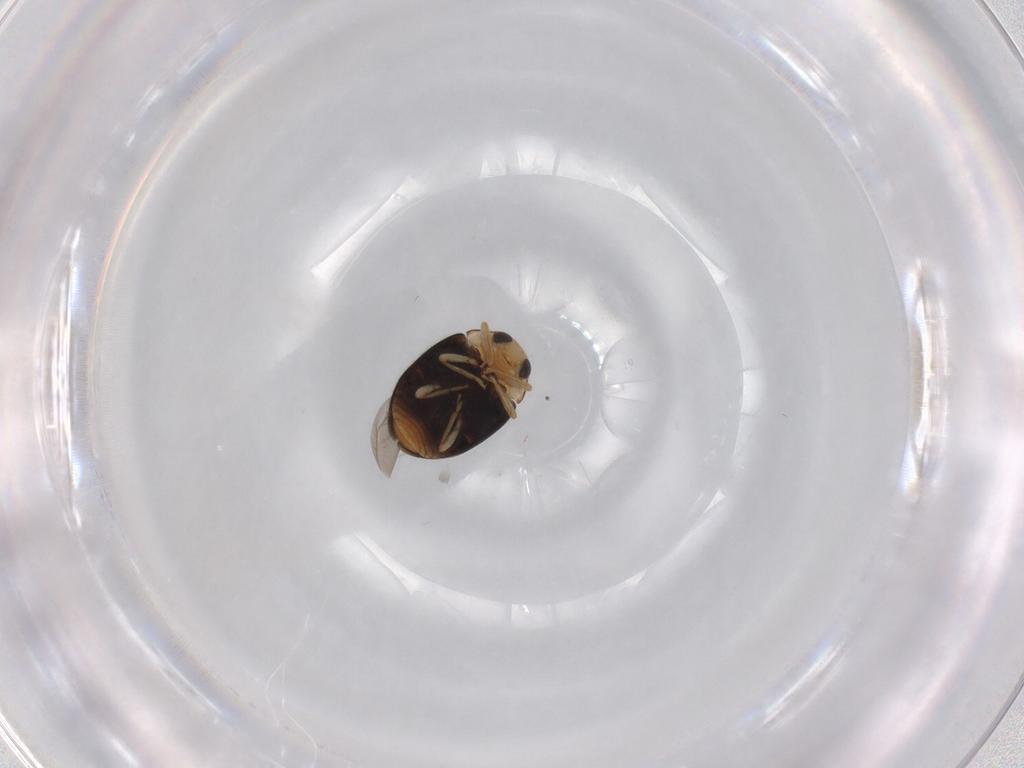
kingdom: Animalia
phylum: Arthropoda
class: Insecta
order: Coleoptera
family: Coccinellidae
